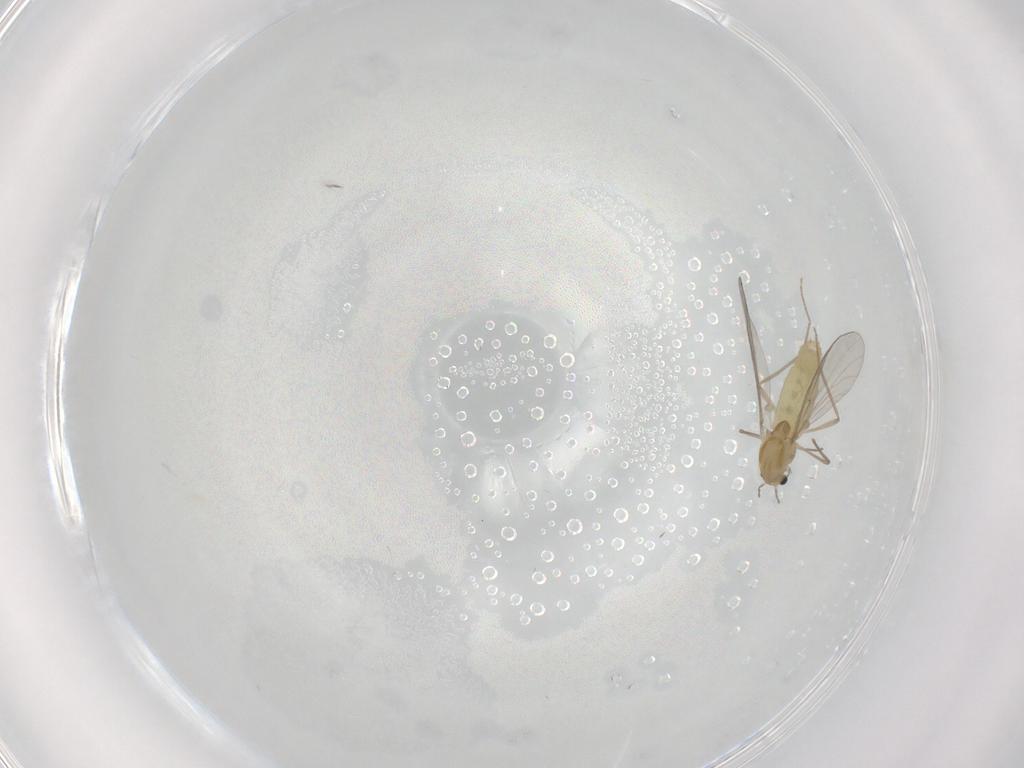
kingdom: Animalia
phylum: Arthropoda
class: Insecta
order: Diptera
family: Chironomidae
